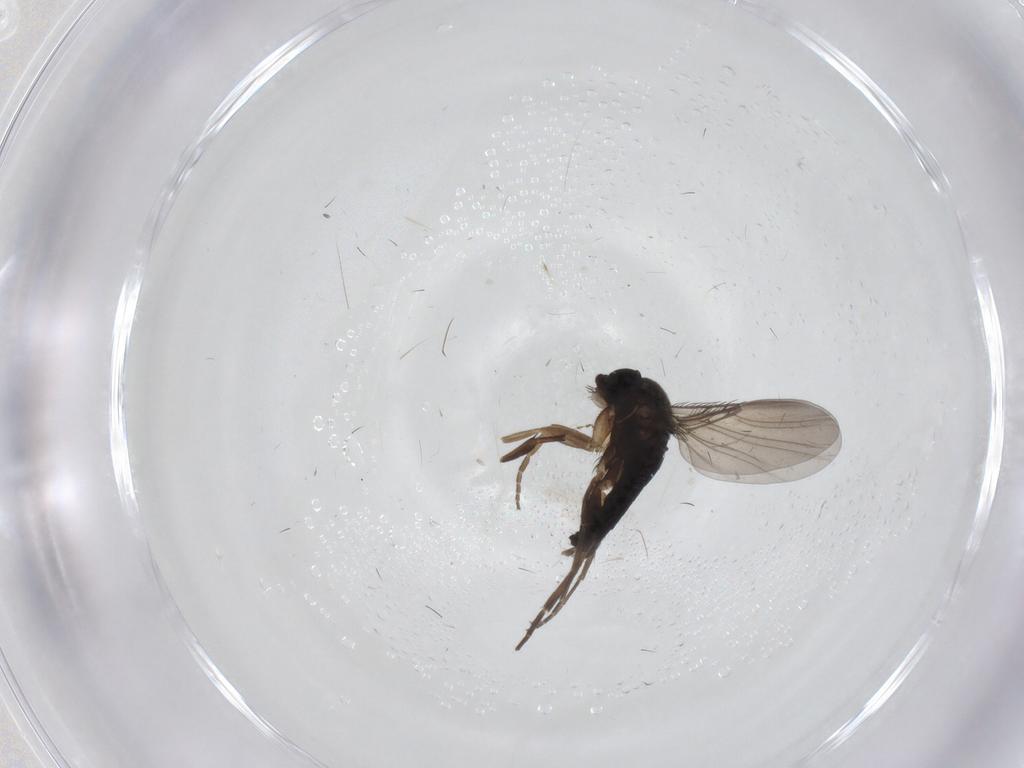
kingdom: Animalia
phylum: Arthropoda
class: Insecta
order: Diptera
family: Phoridae
